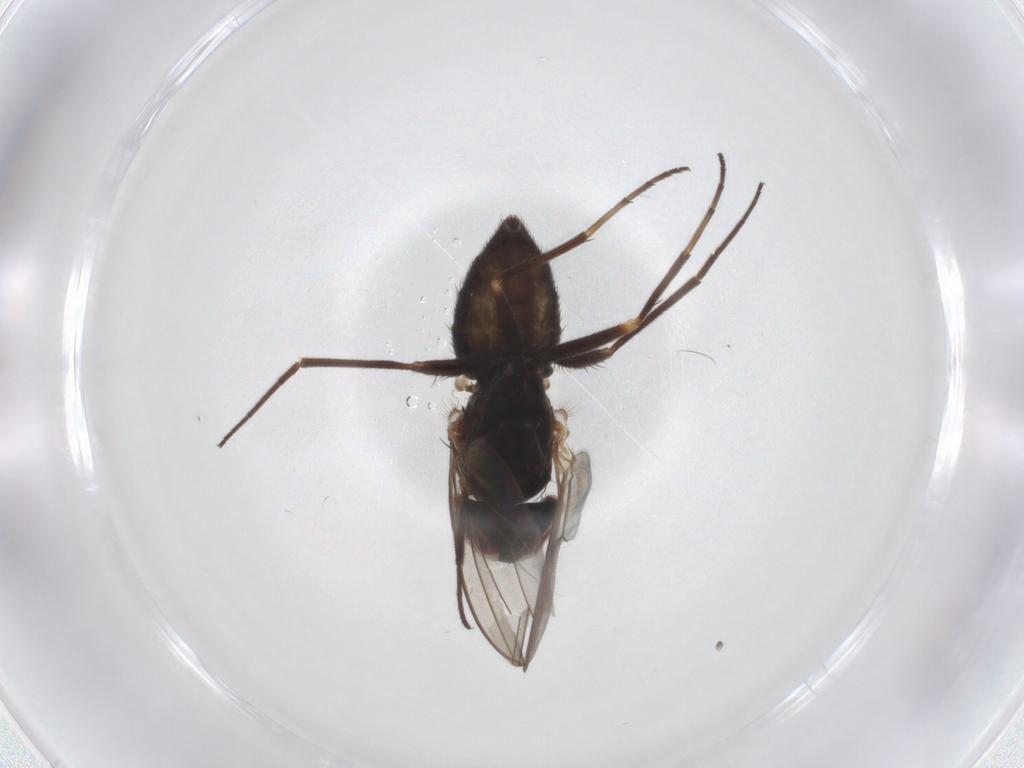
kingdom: Animalia
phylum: Arthropoda
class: Insecta
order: Diptera
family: Dolichopodidae
